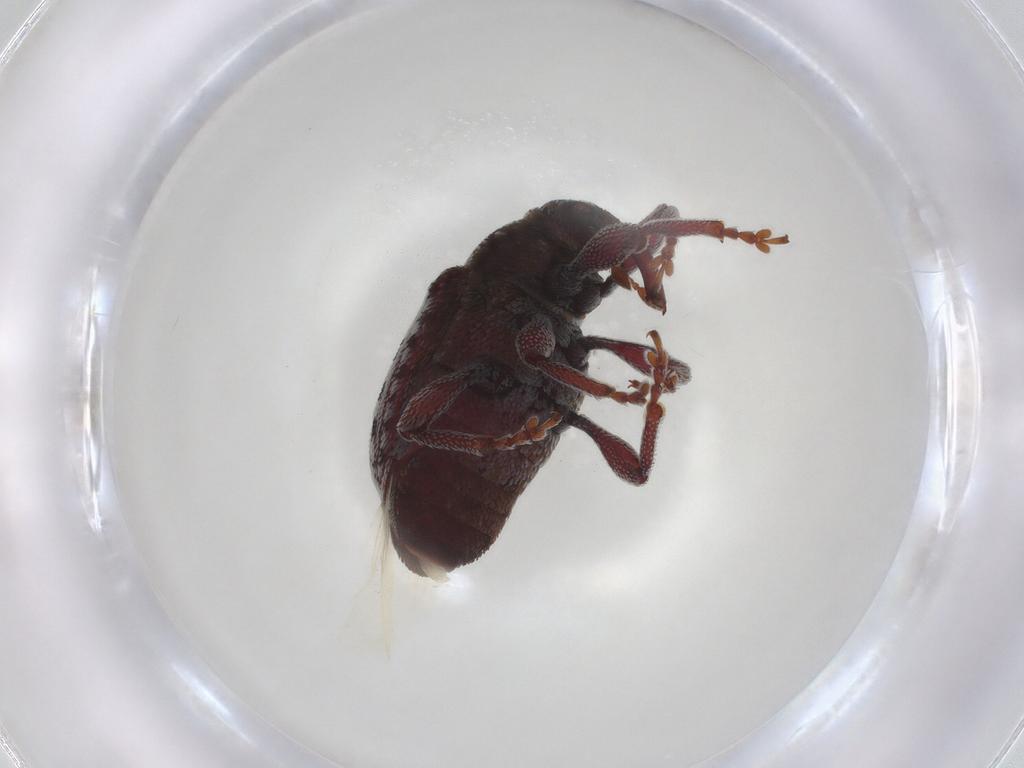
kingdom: Animalia
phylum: Arthropoda
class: Insecta
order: Coleoptera
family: Curculionidae
